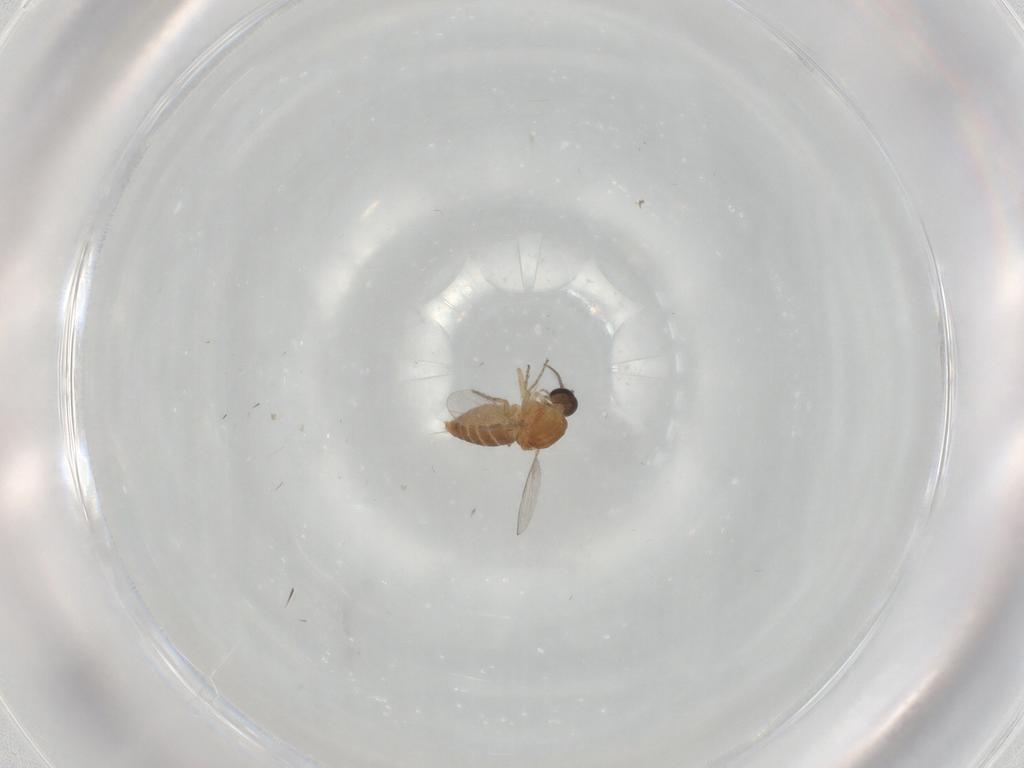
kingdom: Animalia
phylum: Arthropoda
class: Insecta
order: Diptera
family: Ceratopogonidae
